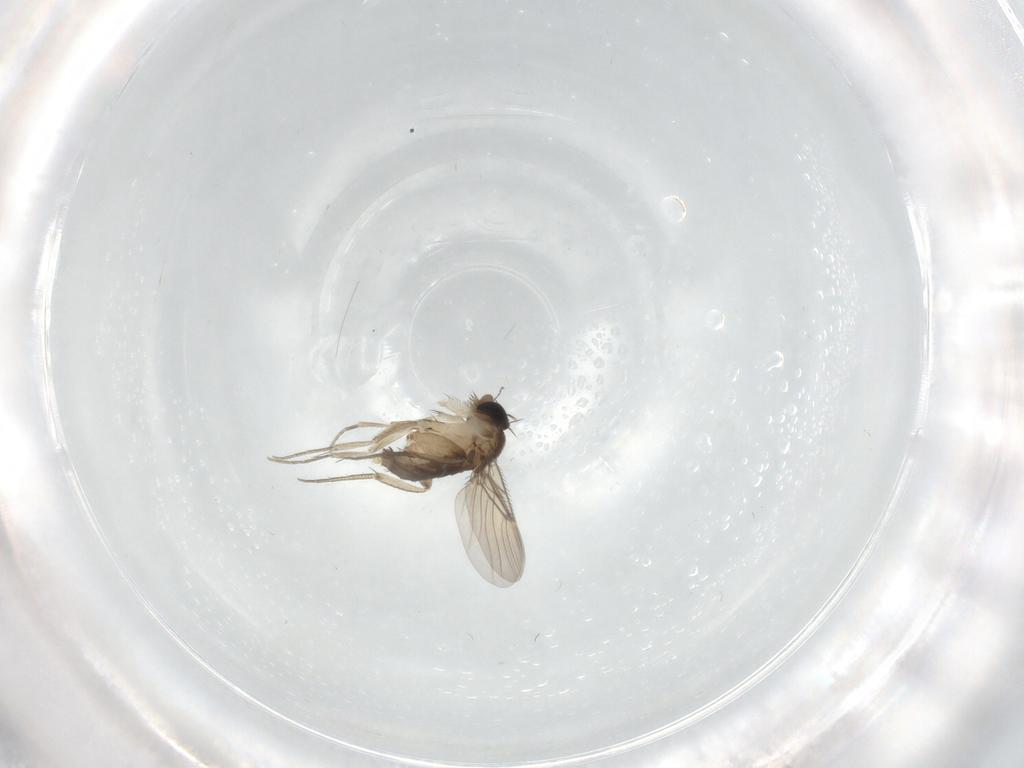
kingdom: Animalia
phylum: Arthropoda
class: Insecta
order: Diptera
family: Phoridae
